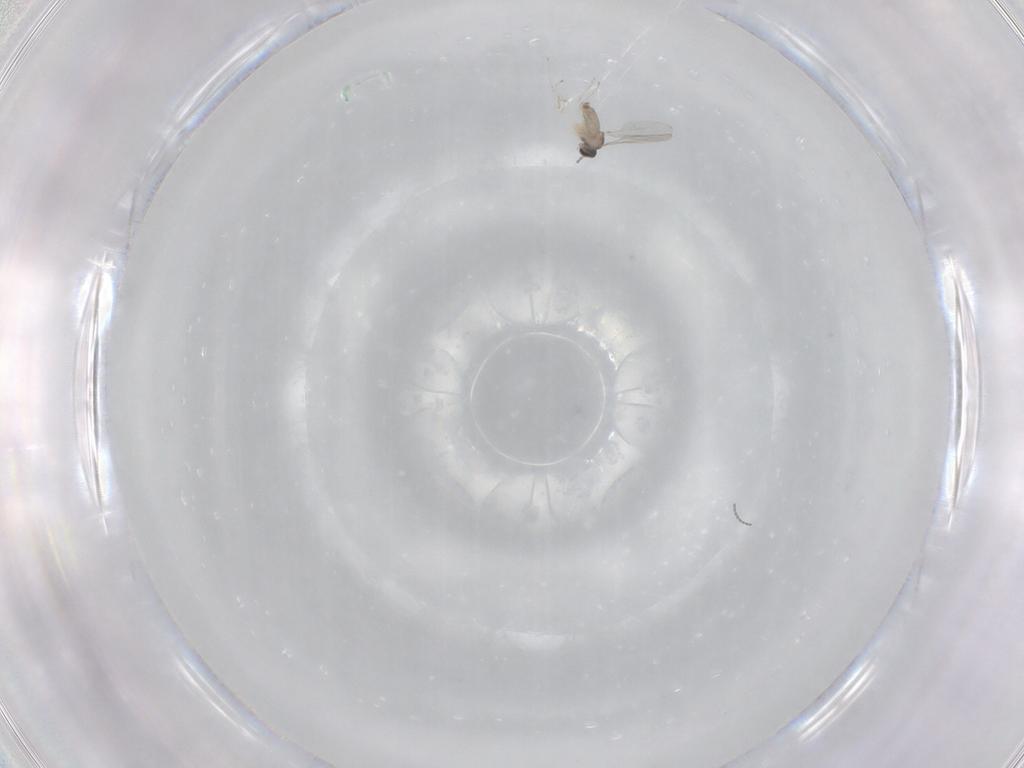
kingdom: Animalia
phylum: Arthropoda
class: Insecta
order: Diptera
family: Cecidomyiidae
